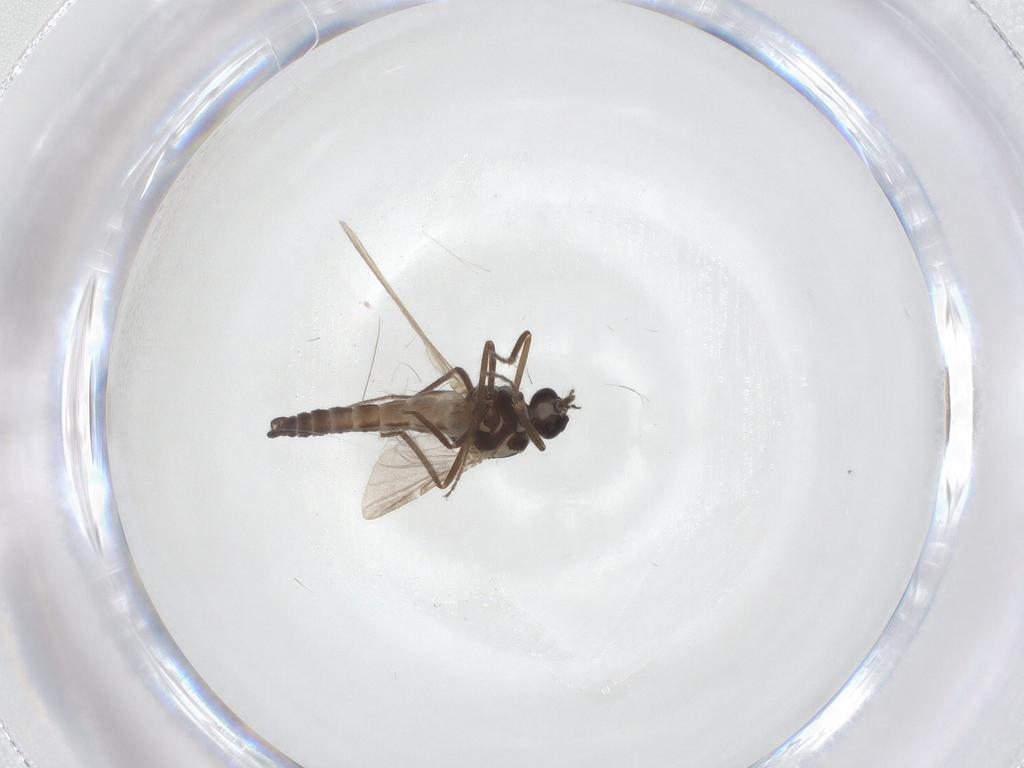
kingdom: Animalia
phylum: Arthropoda
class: Insecta
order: Diptera
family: Ceratopogonidae
